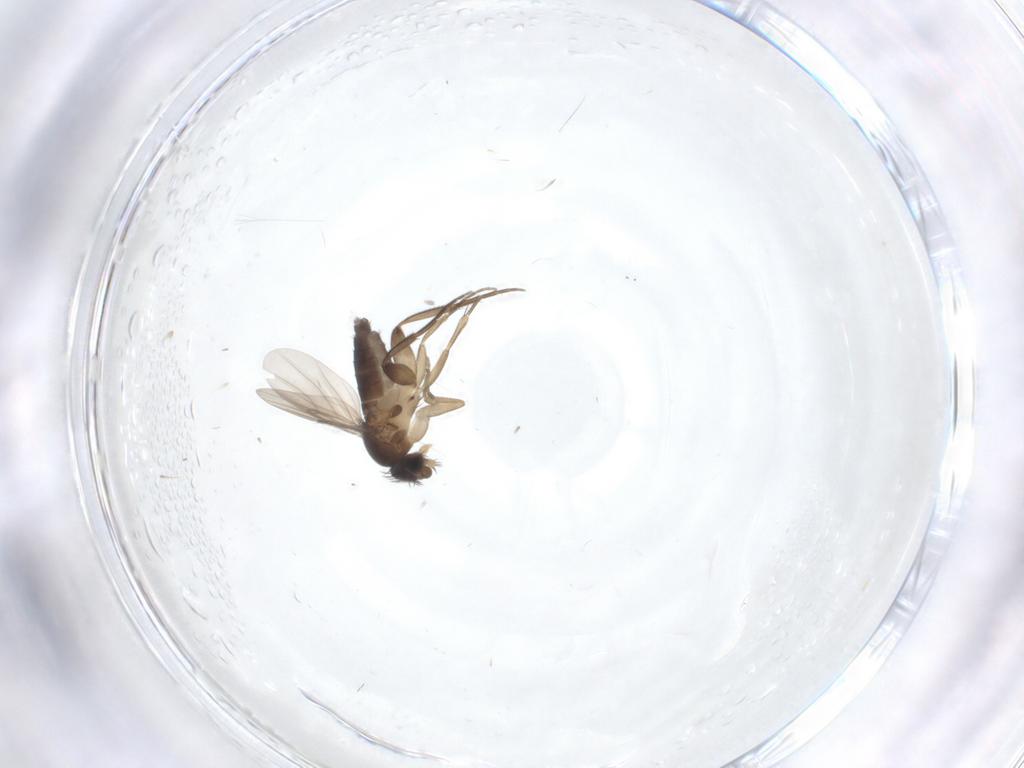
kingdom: Animalia
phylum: Arthropoda
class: Insecta
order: Diptera
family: Phoridae
